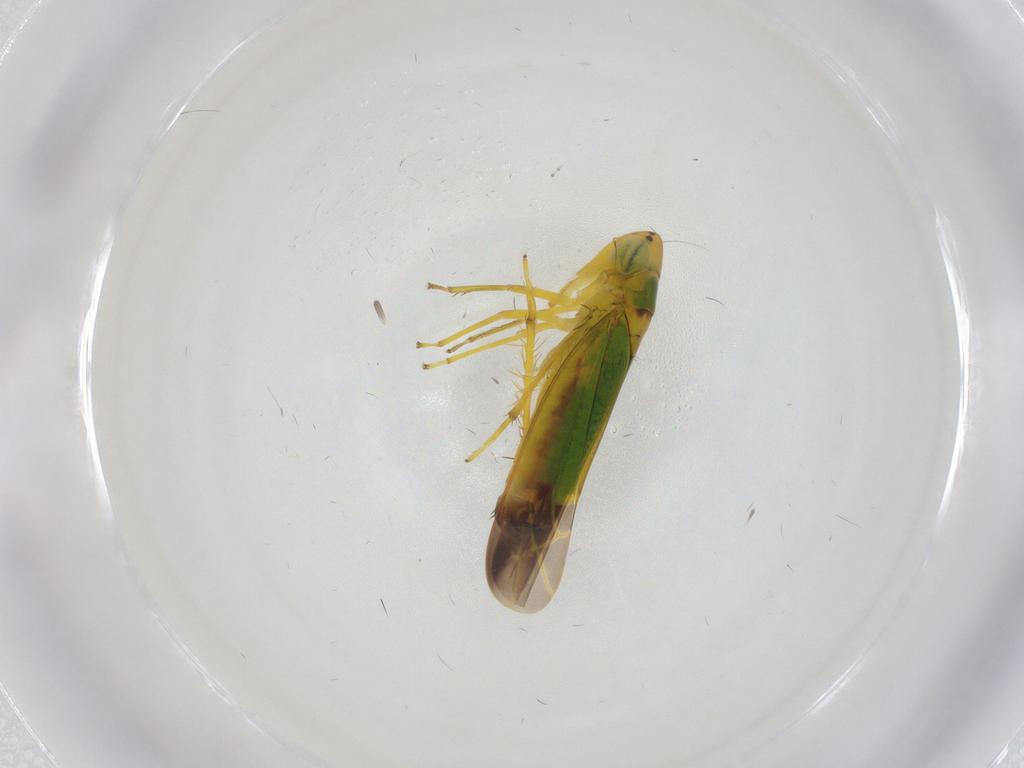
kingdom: Animalia
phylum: Arthropoda
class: Insecta
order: Hemiptera
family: Cicadellidae
